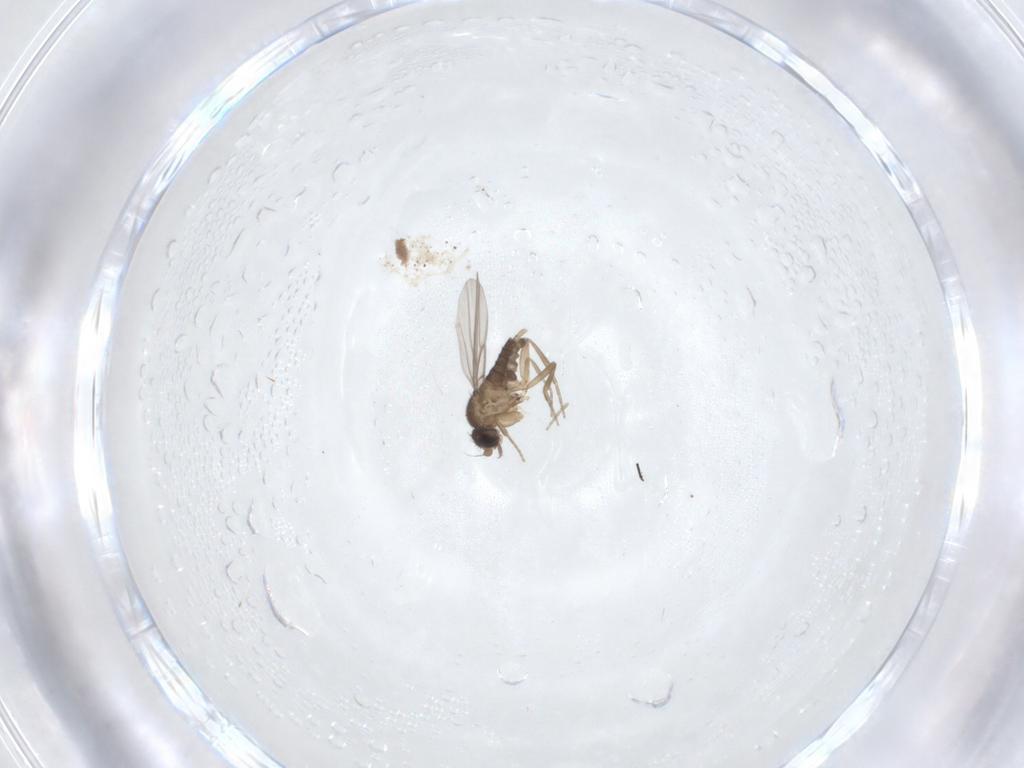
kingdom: Animalia
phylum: Arthropoda
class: Insecta
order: Diptera
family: Phoridae
